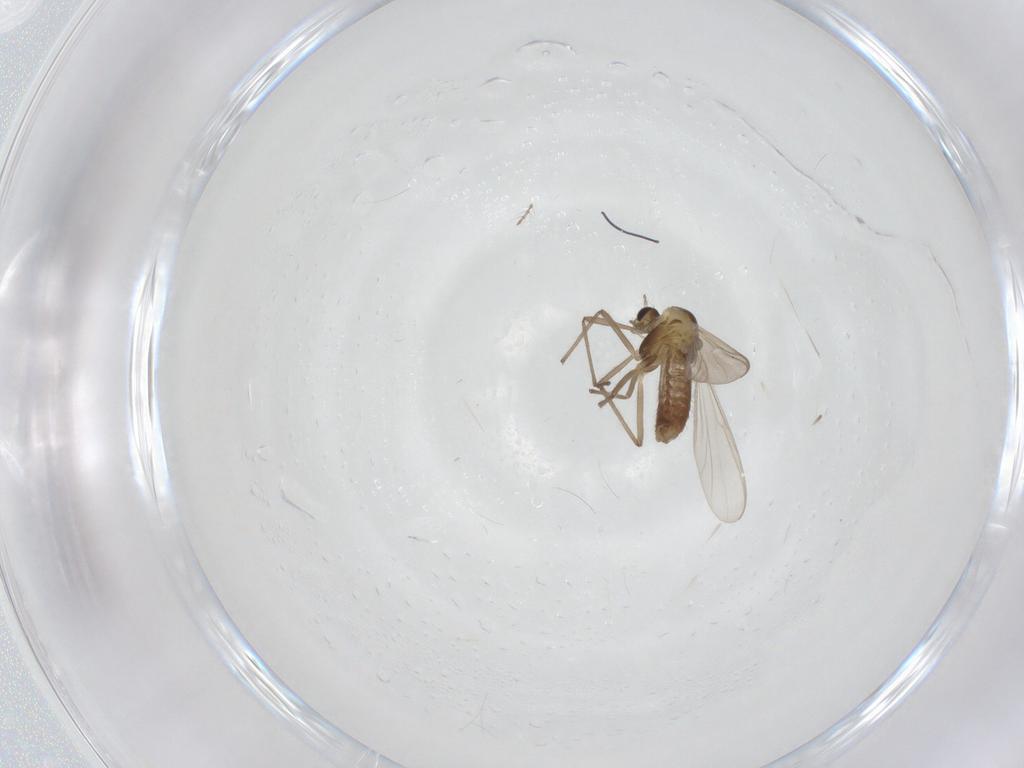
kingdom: Animalia
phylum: Arthropoda
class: Insecta
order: Diptera
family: Chironomidae
